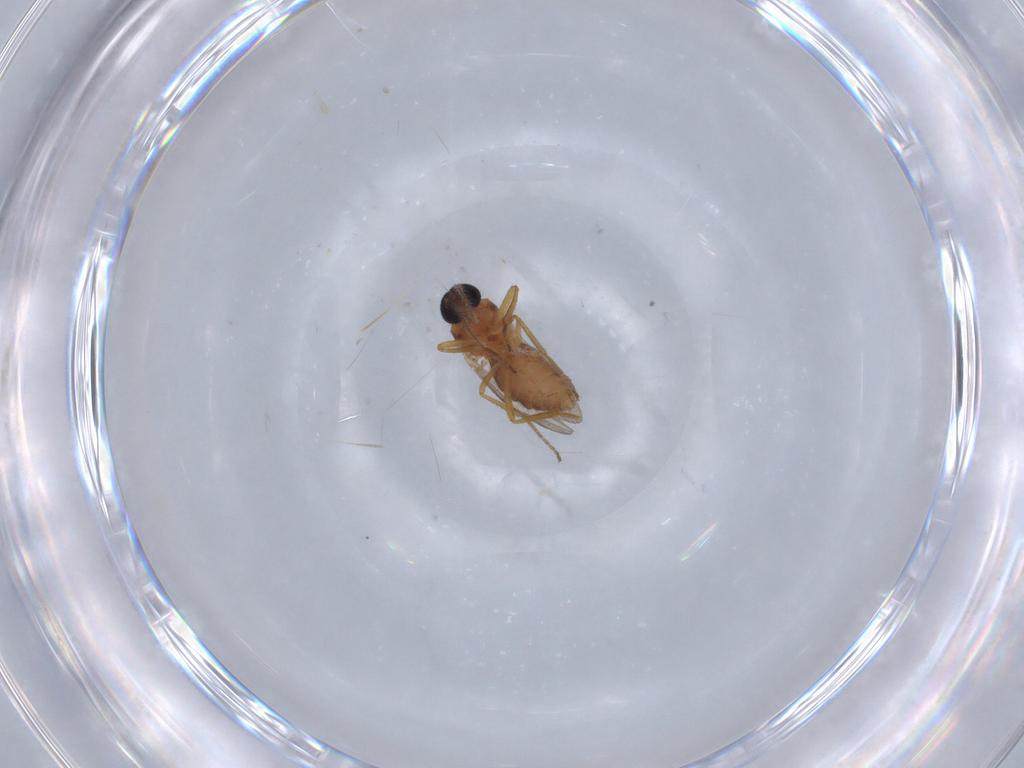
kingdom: Animalia
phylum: Arthropoda
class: Insecta
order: Diptera
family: Ceratopogonidae
